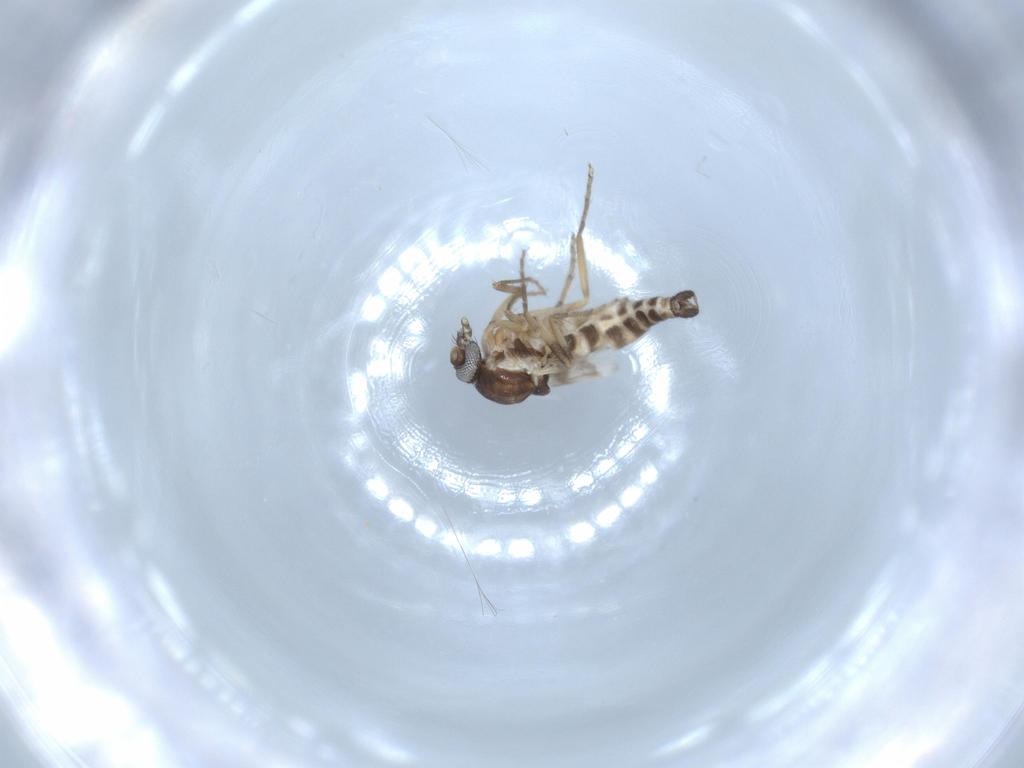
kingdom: Animalia
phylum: Arthropoda
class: Insecta
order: Diptera
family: Ceratopogonidae
